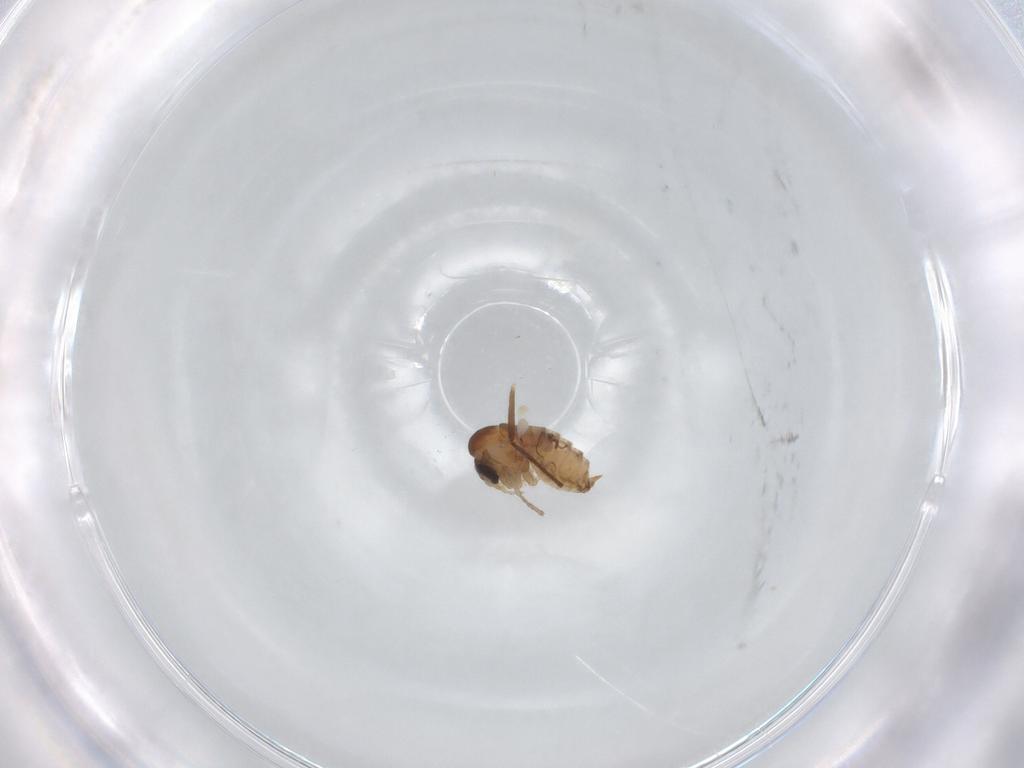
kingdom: Animalia
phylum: Arthropoda
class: Insecta
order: Diptera
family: Chironomidae
